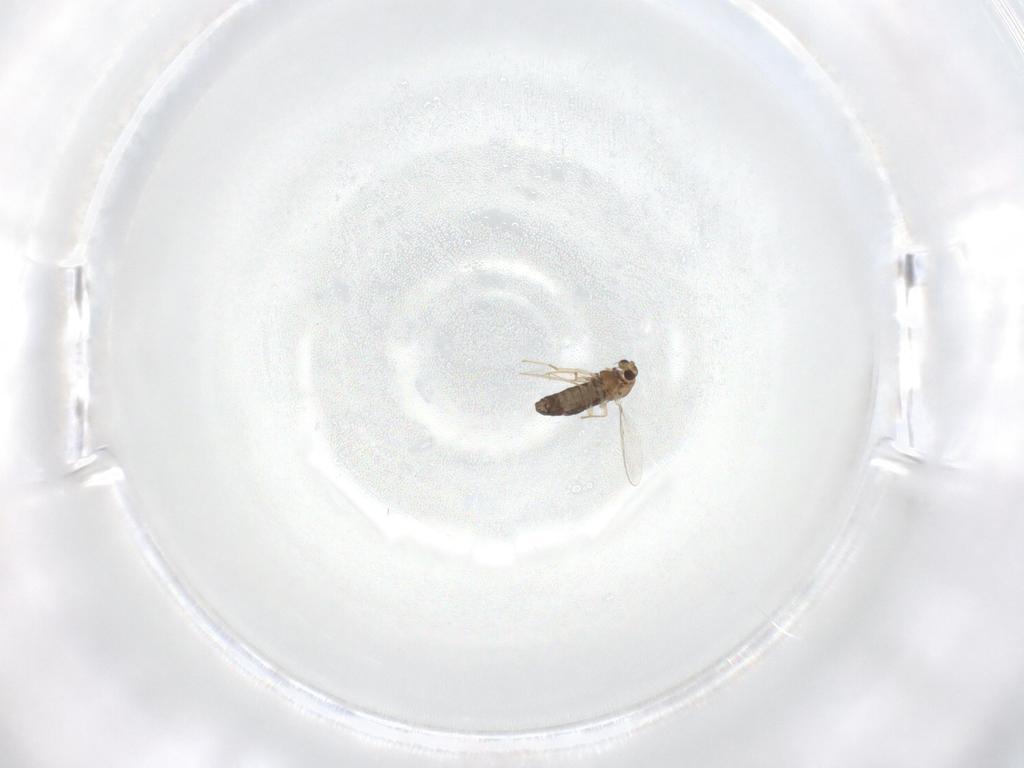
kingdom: Animalia
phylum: Arthropoda
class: Insecta
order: Diptera
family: Chironomidae
